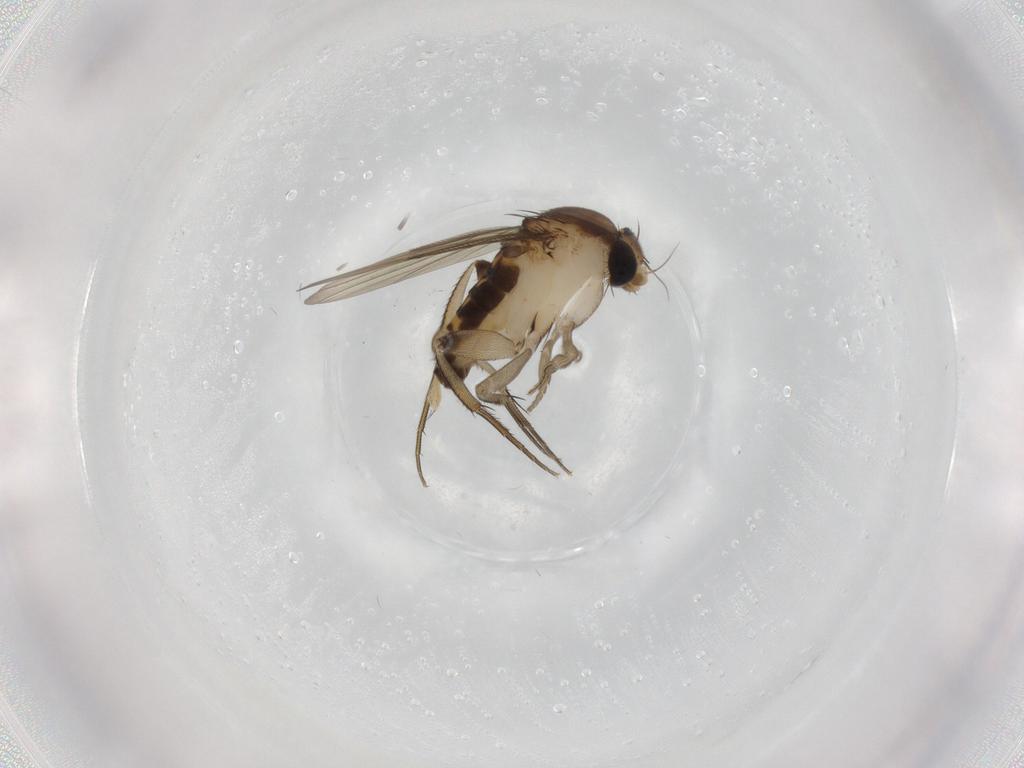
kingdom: Animalia
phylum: Arthropoda
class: Insecta
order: Diptera
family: Phoridae
